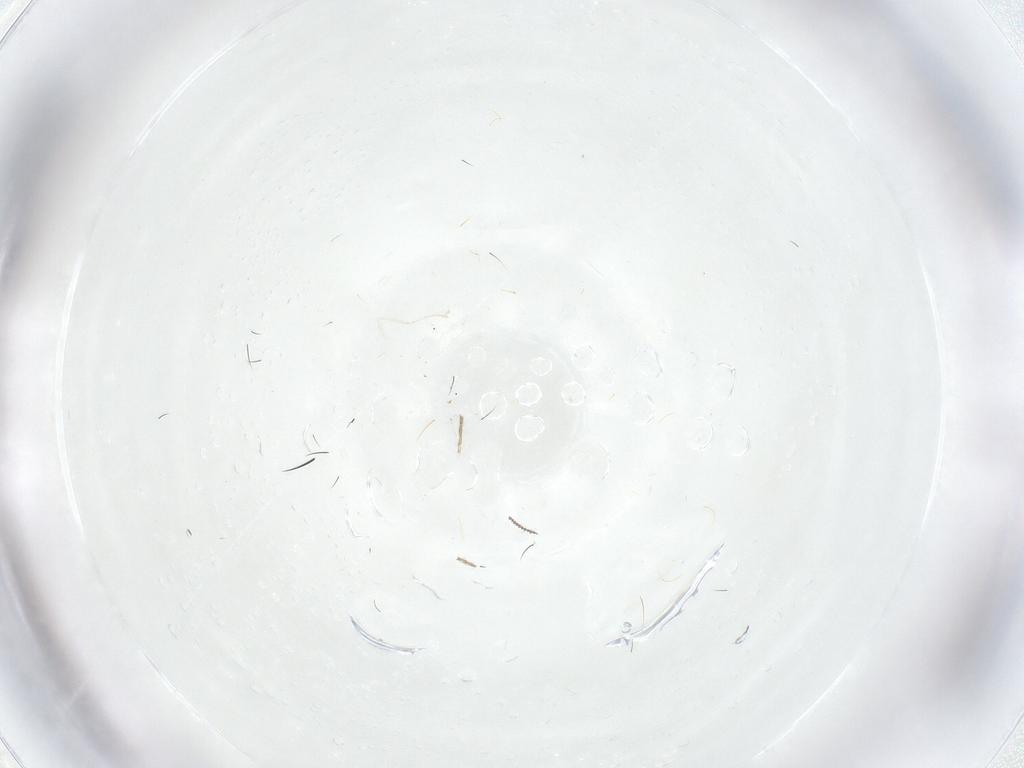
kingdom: Animalia
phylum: Arthropoda
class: Insecta
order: Diptera
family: Ceratopogonidae
